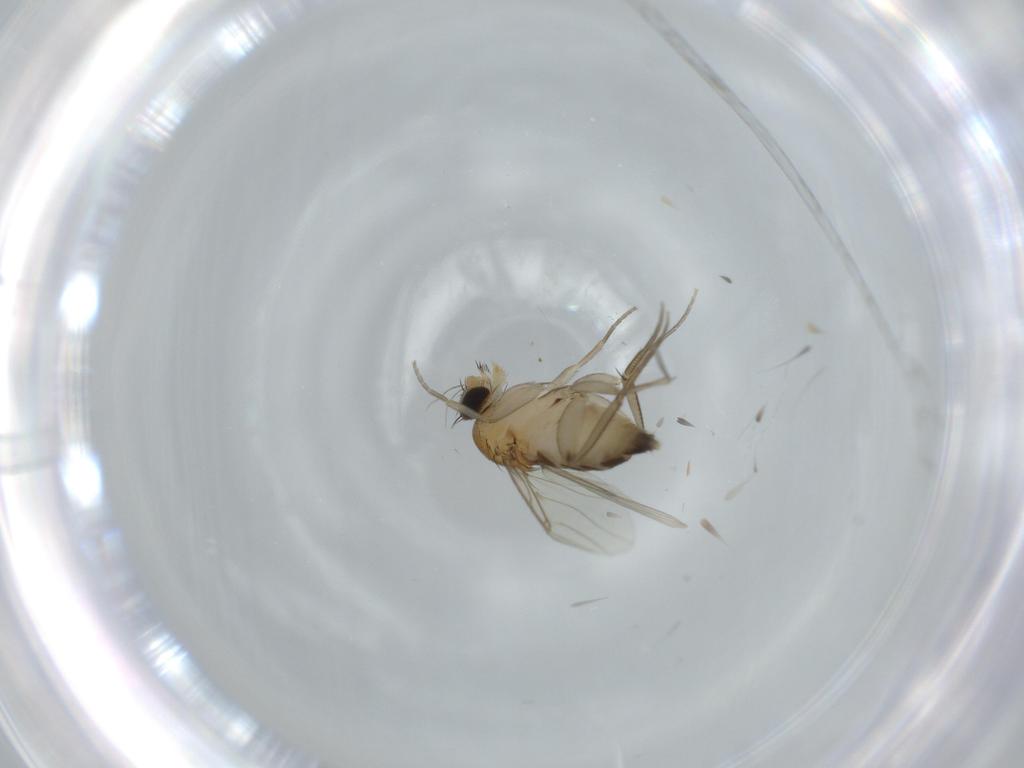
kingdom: Animalia
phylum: Arthropoda
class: Insecta
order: Diptera
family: Phoridae
